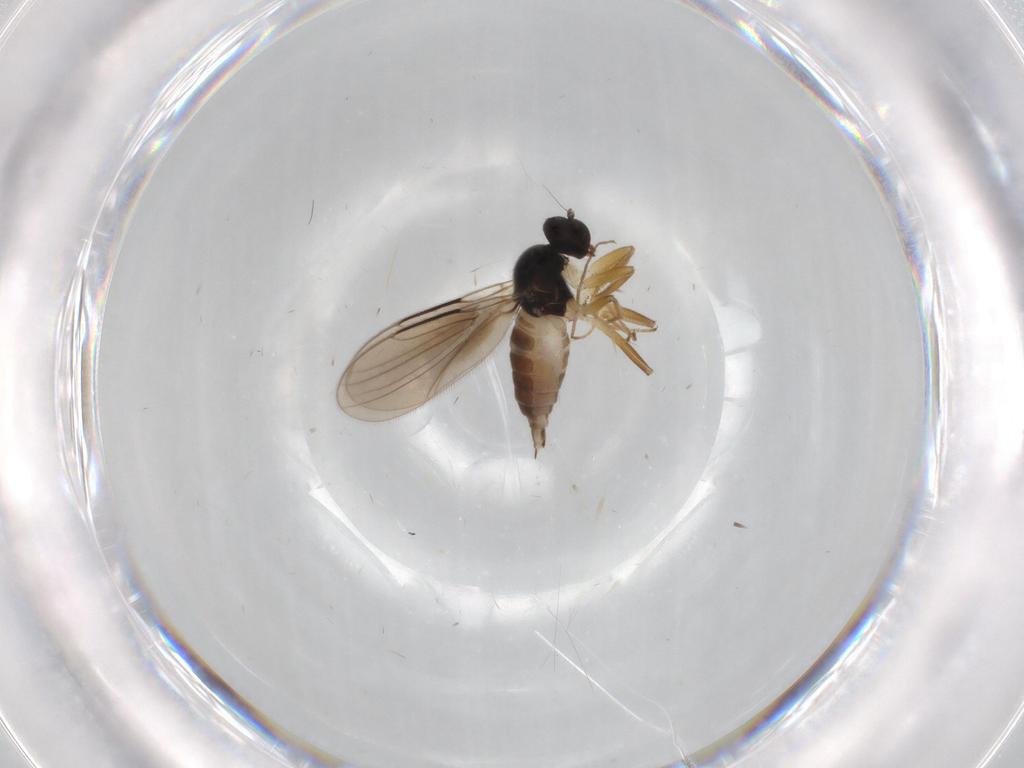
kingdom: Animalia
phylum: Arthropoda
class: Insecta
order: Diptera
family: Hybotidae
